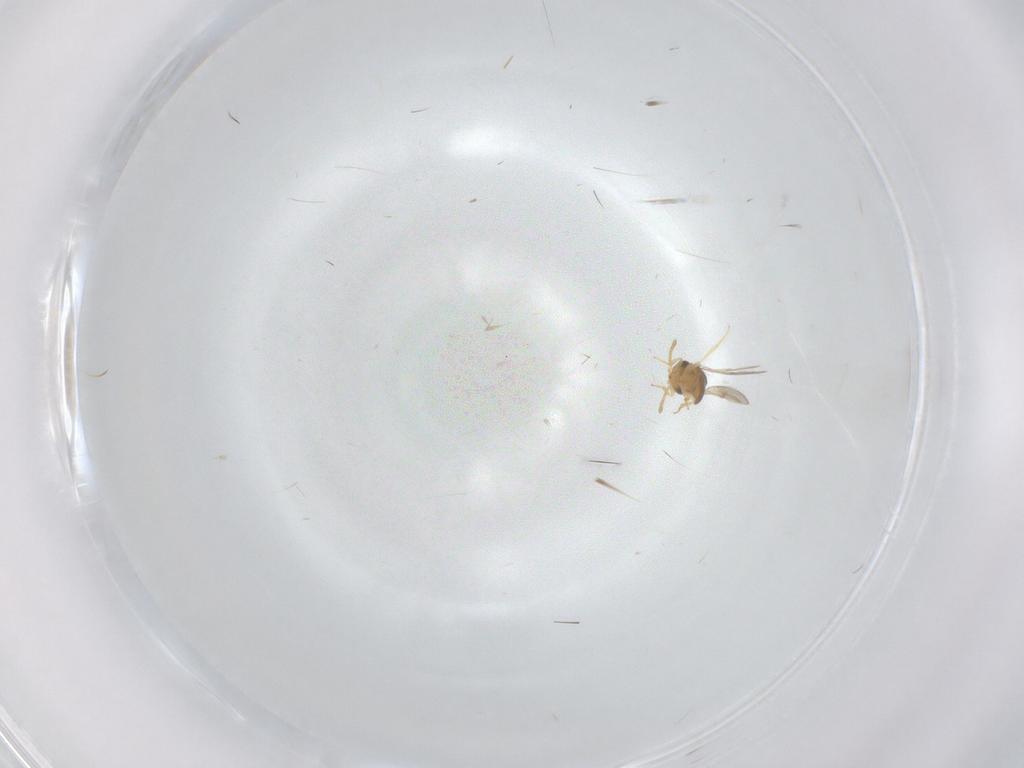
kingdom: Animalia
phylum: Arthropoda
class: Insecta
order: Hymenoptera
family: Scelionidae
